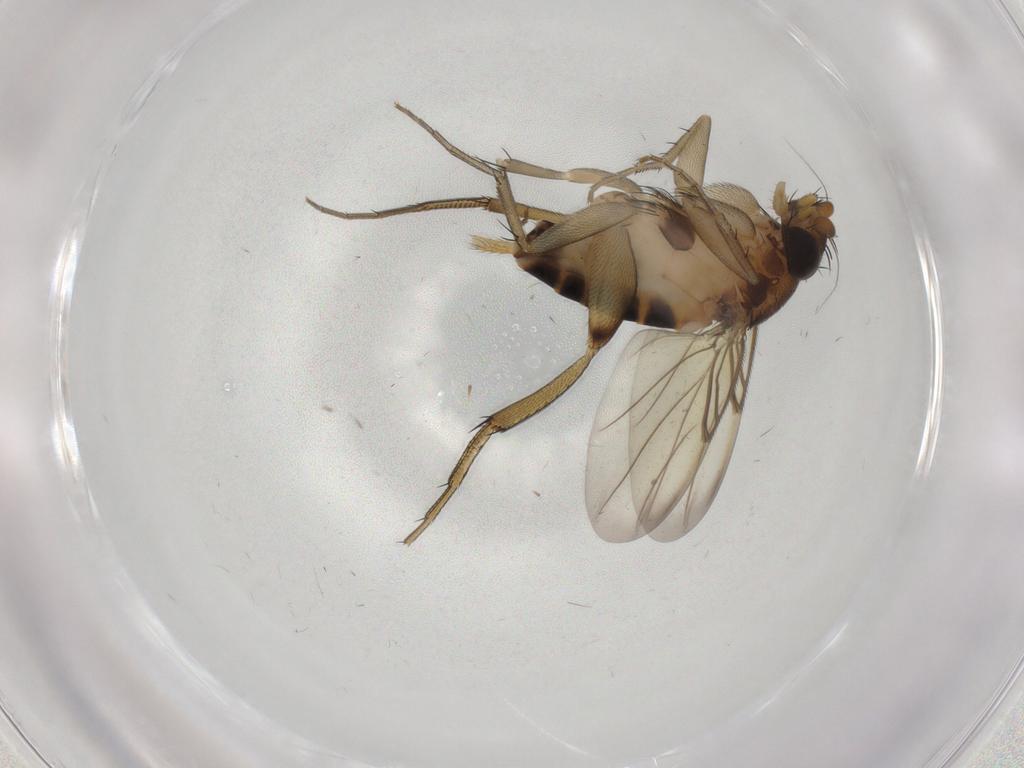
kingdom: Animalia
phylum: Arthropoda
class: Insecta
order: Diptera
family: Phoridae
